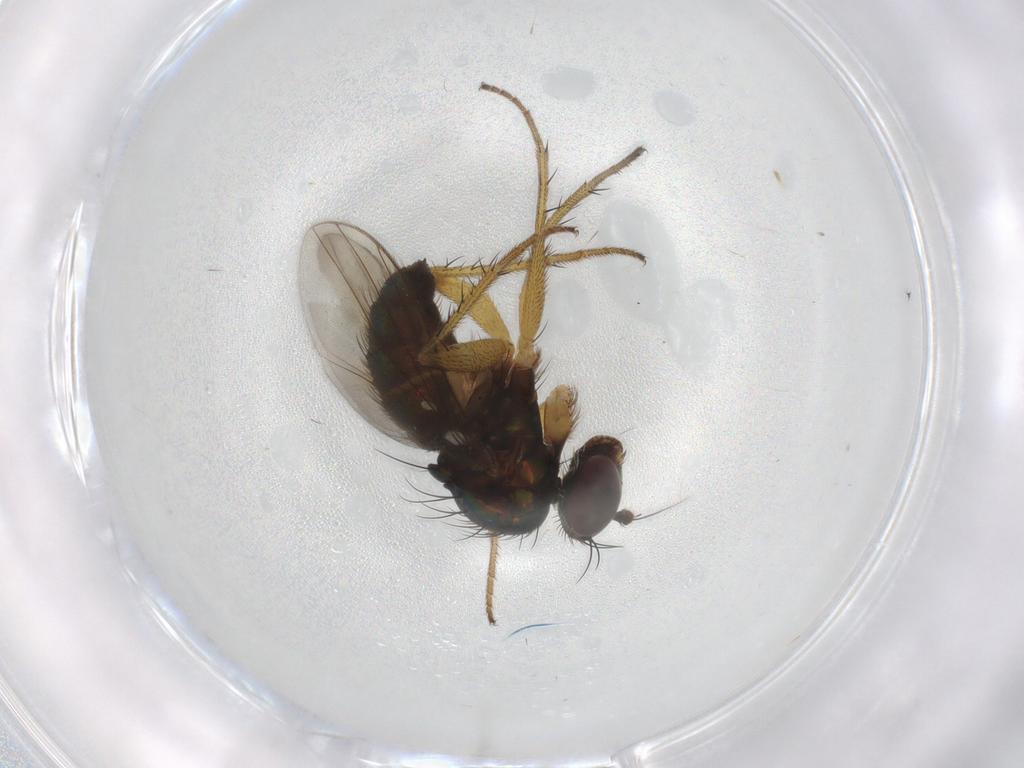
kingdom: Animalia
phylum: Arthropoda
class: Insecta
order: Diptera
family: Dolichopodidae
